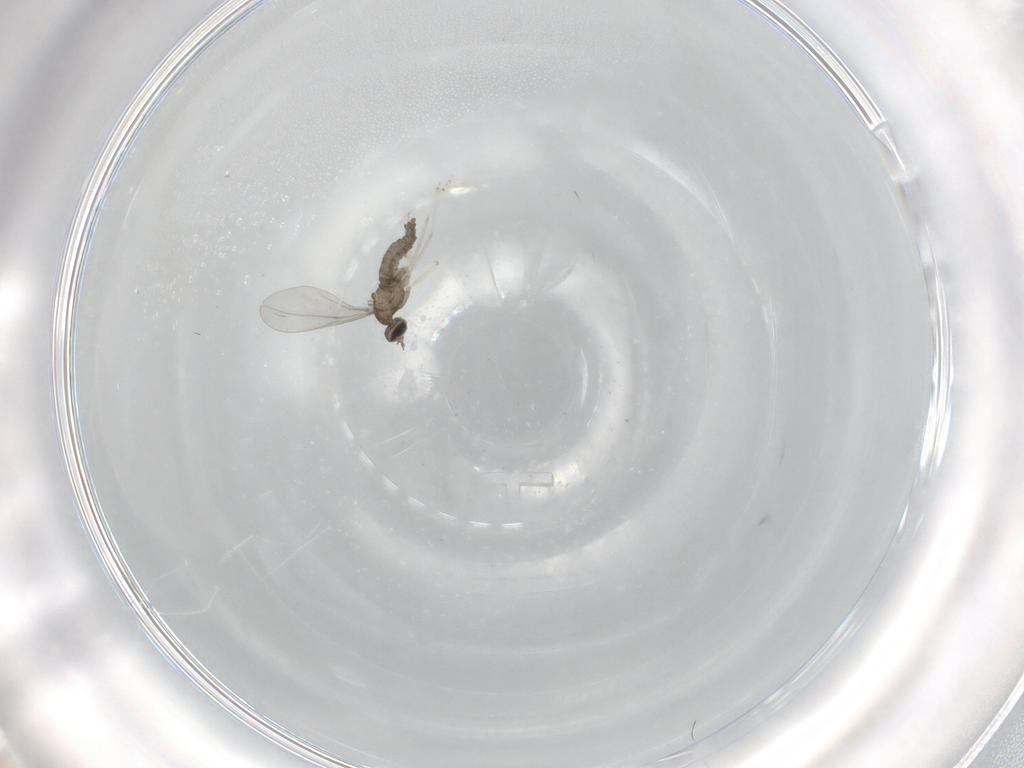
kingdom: Animalia
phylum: Arthropoda
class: Insecta
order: Diptera
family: Cecidomyiidae
